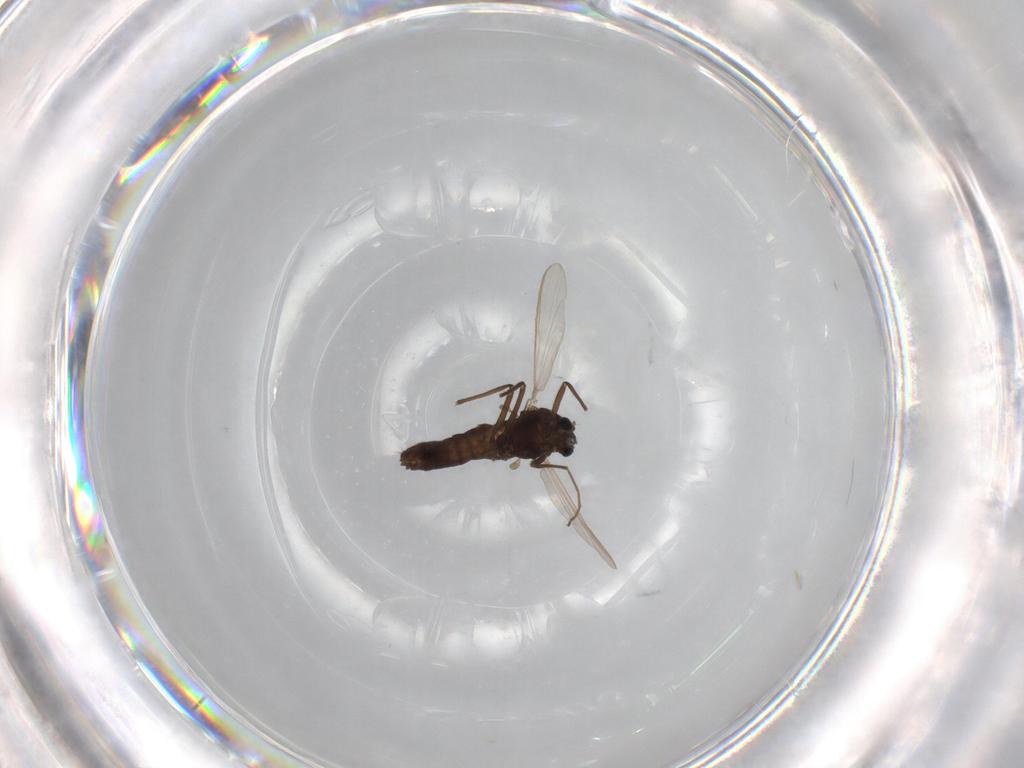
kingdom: Animalia
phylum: Arthropoda
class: Insecta
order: Diptera
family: Chironomidae
